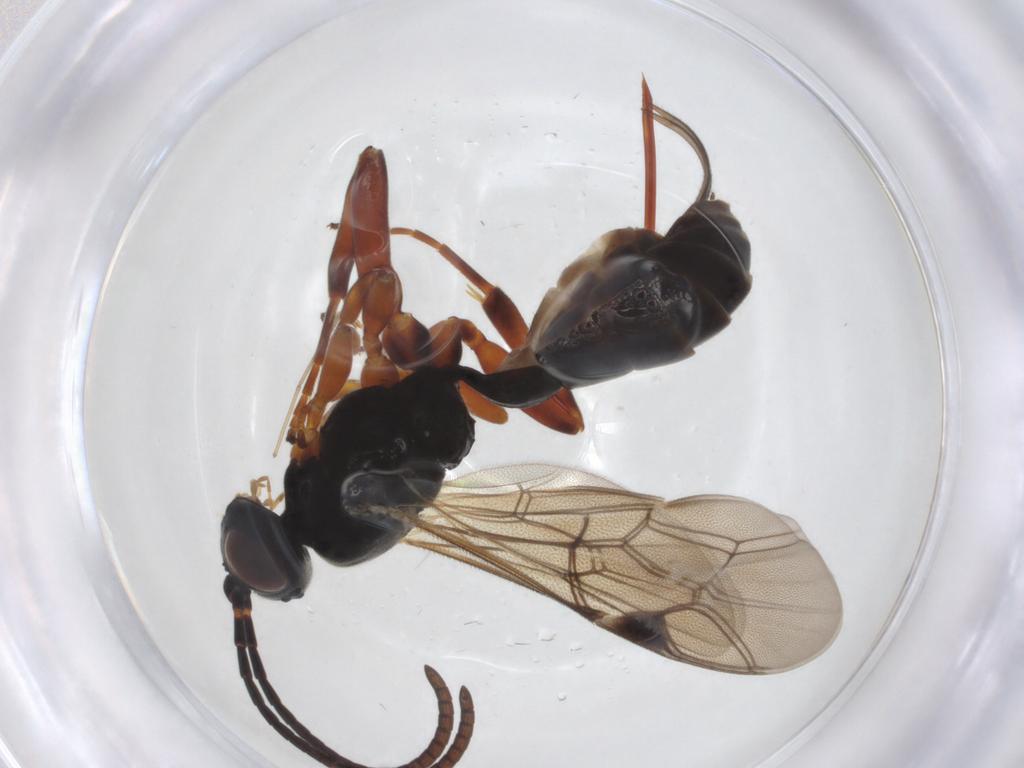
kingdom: Animalia
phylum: Arthropoda
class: Insecta
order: Hymenoptera
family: Ichneumonidae
